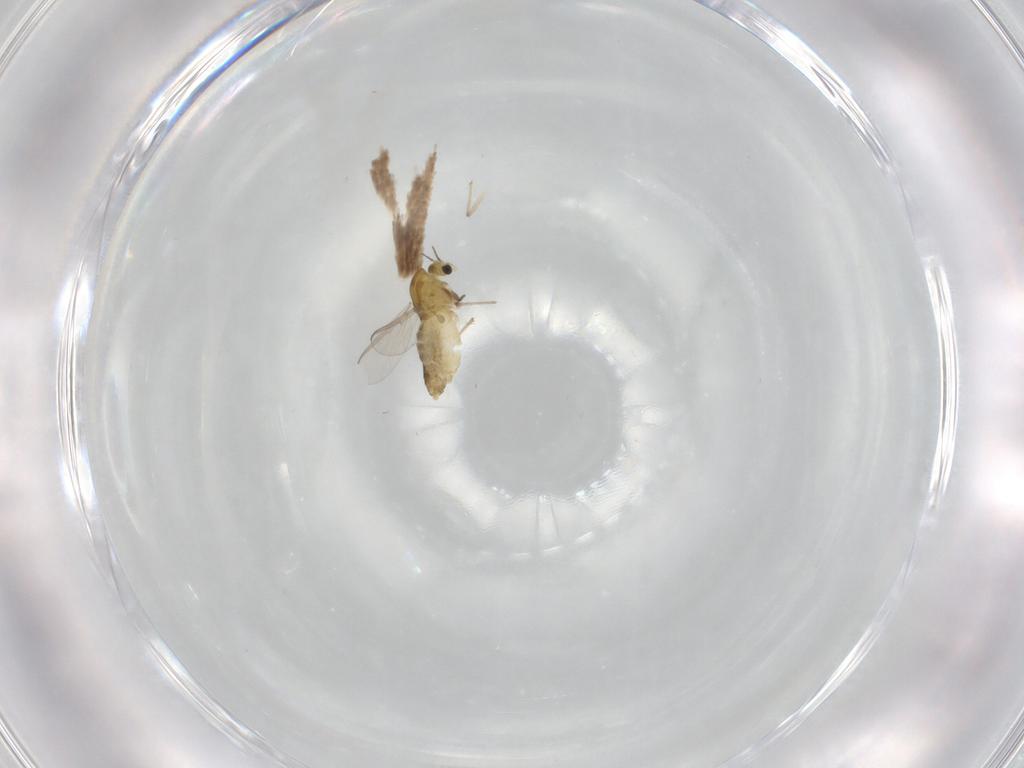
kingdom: Animalia
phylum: Arthropoda
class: Insecta
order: Diptera
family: Chironomidae
